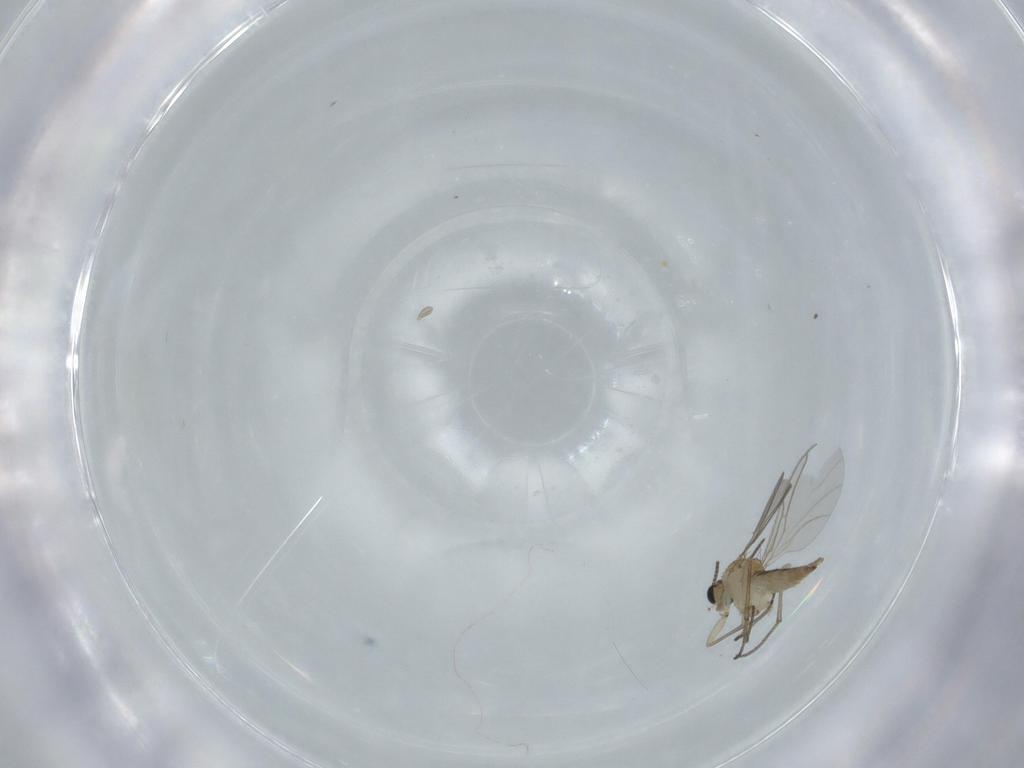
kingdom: Animalia
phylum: Arthropoda
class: Insecta
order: Diptera
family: Sciaridae
